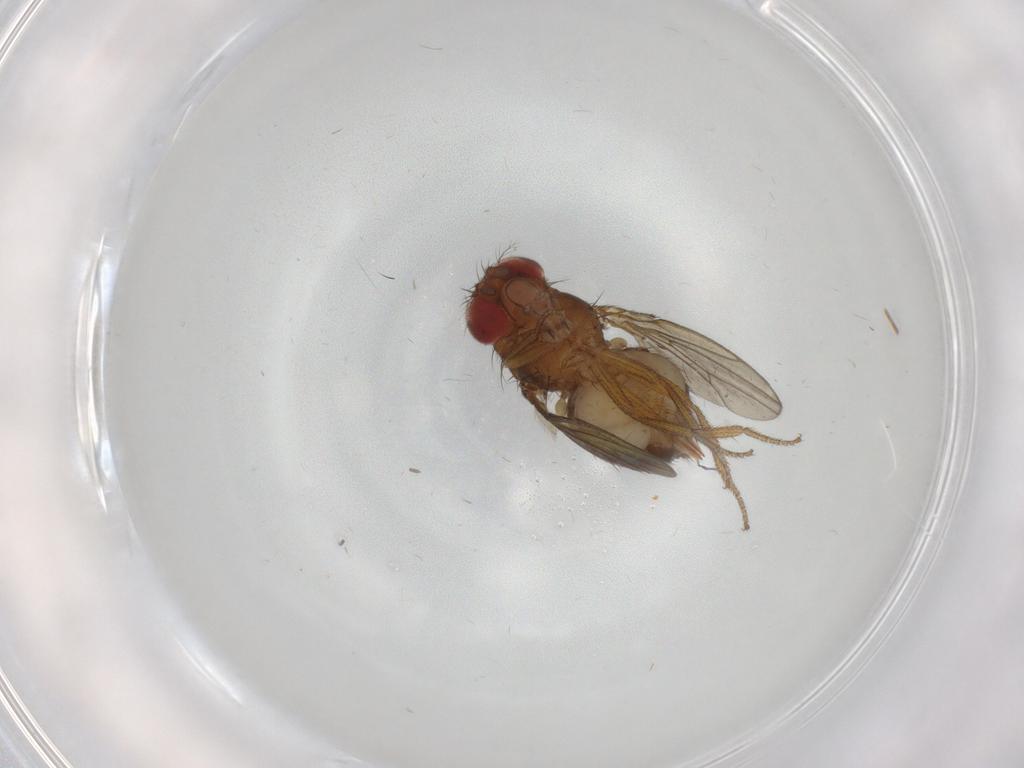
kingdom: Animalia
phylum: Arthropoda
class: Insecta
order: Diptera
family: Drosophilidae
